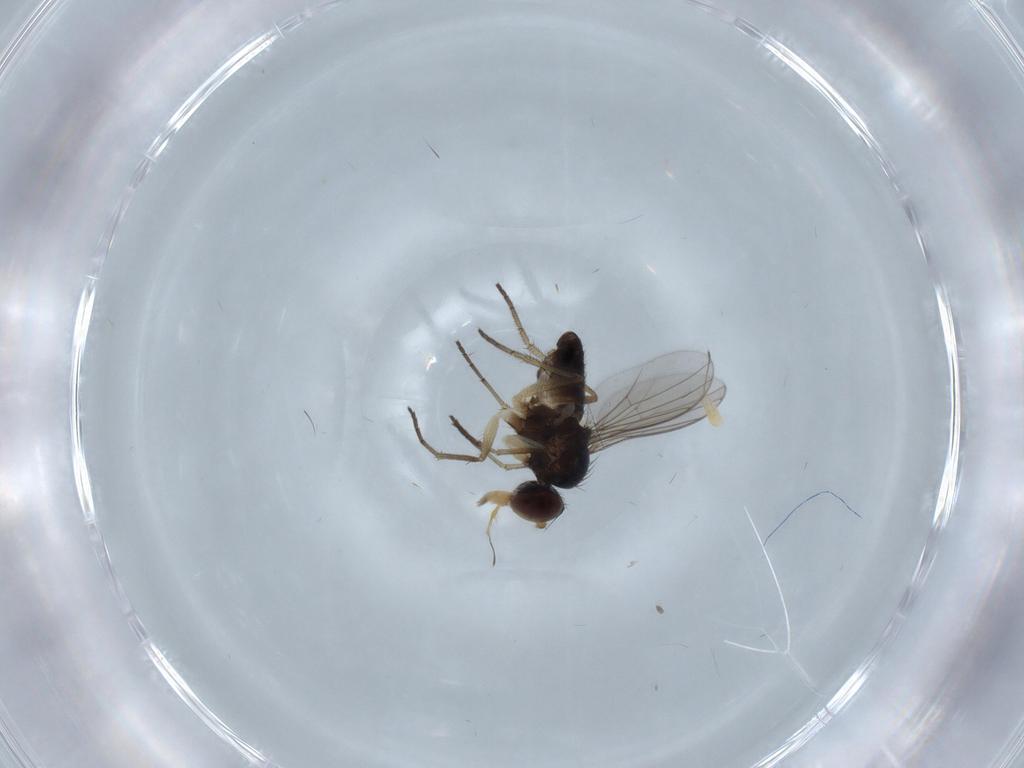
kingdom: Animalia
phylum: Arthropoda
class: Insecta
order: Diptera
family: Dolichopodidae
